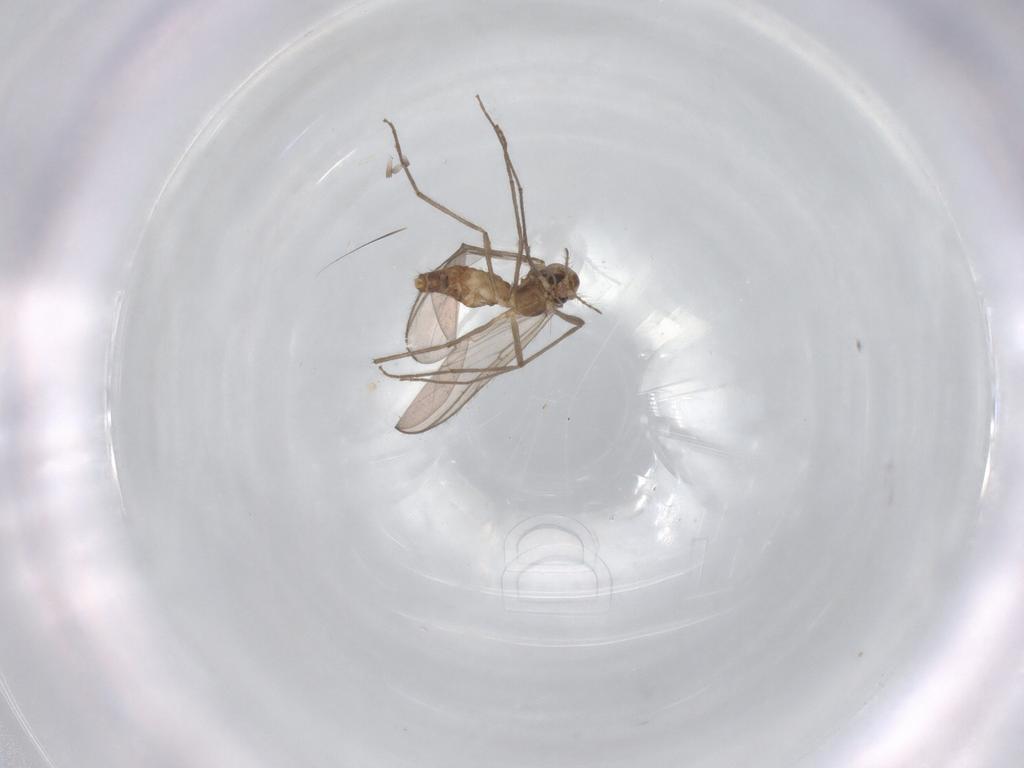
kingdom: Animalia
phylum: Arthropoda
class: Insecta
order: Diptera
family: Chironomidae
